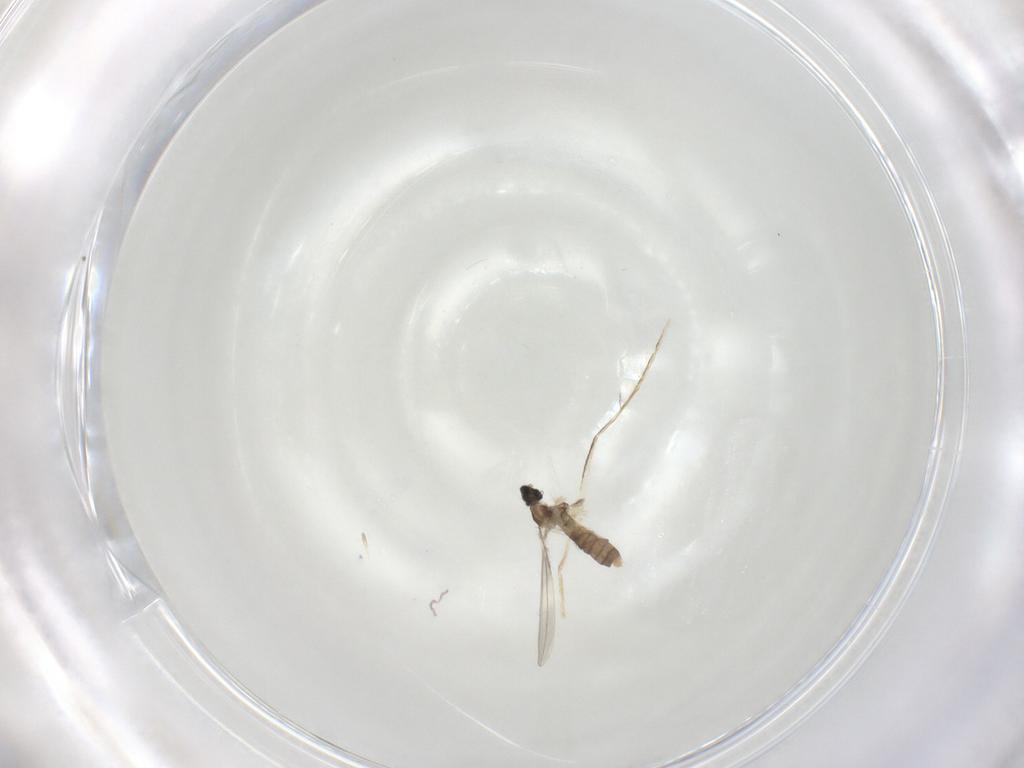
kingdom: Animalia
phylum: Arthropoda
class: Insecta
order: Diptera
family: Cecidomyiidae
